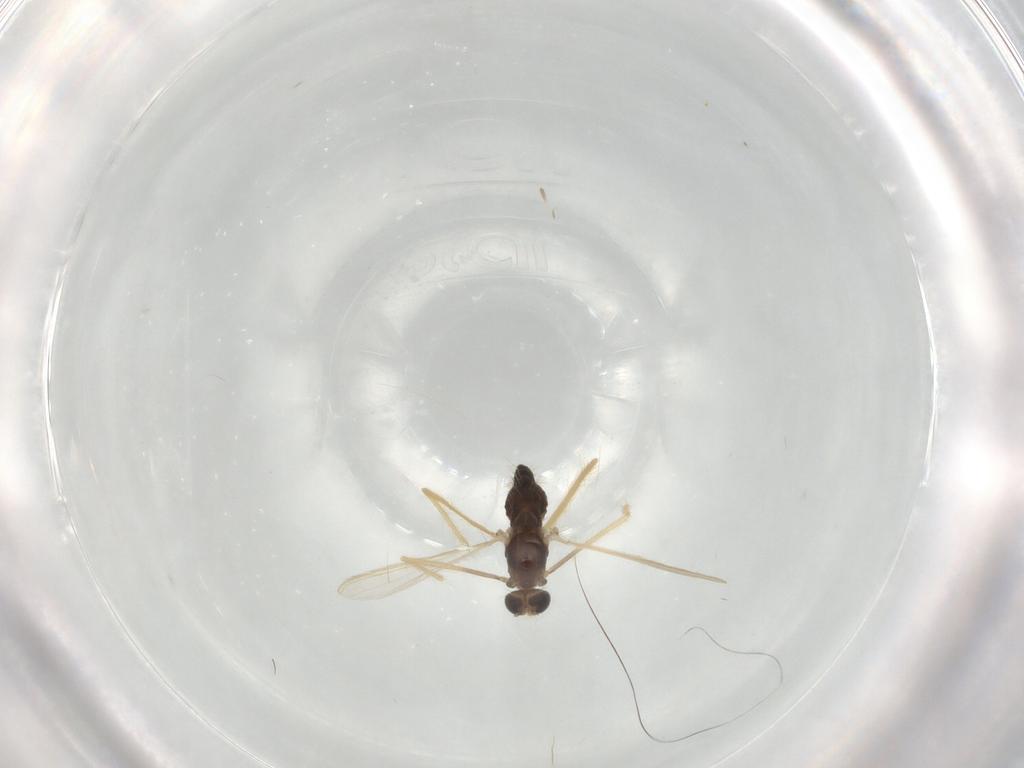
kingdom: Animalia
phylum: Arthropoda
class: Insecta
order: Diptera
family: Chironomidae
